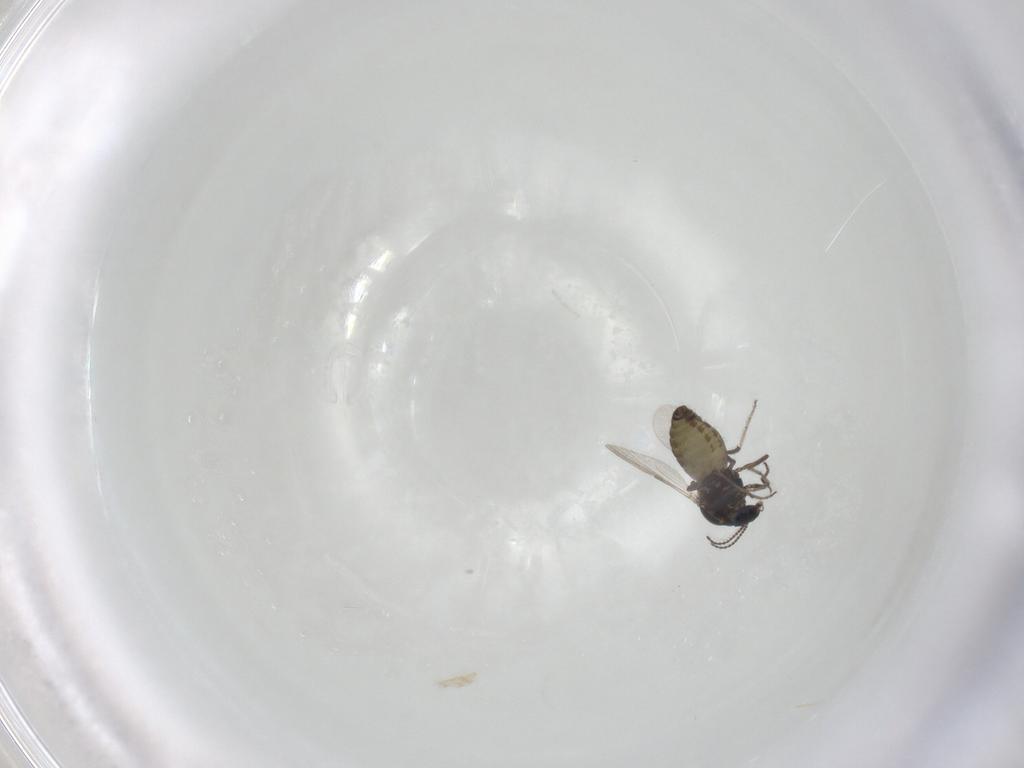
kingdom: Animalia
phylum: Arthropoda
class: Insecta
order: Diptera
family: Ceratopogonidae
